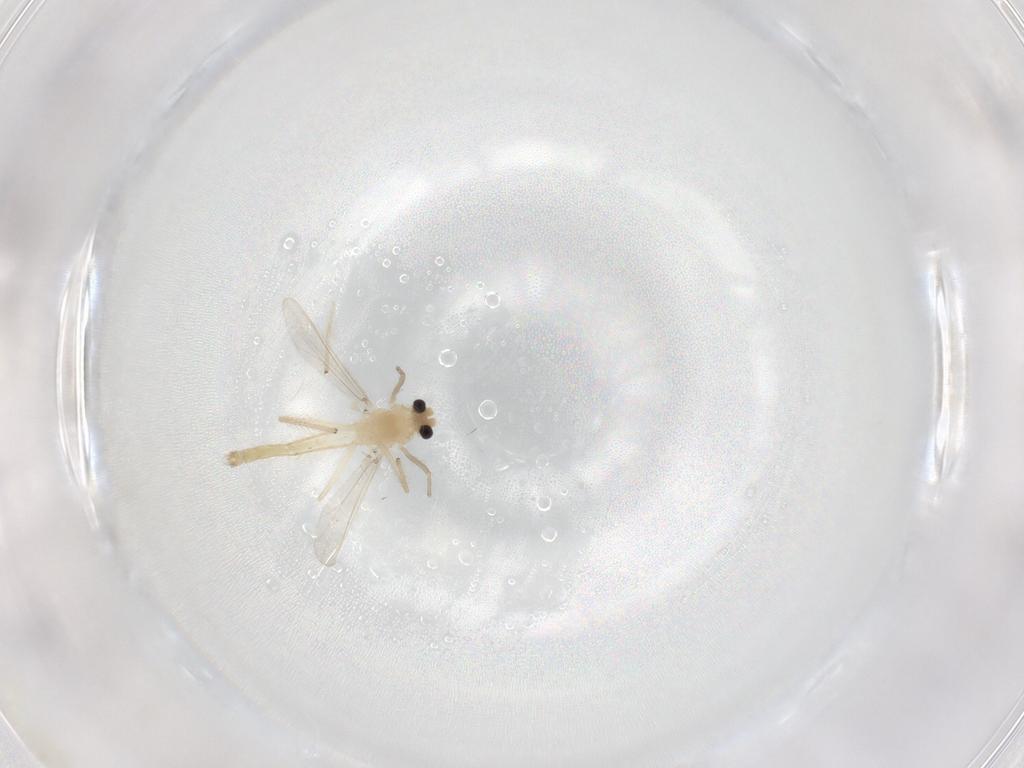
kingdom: Animalia
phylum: Arthropoda
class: Insecta
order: Diptera
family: Chironomidae
